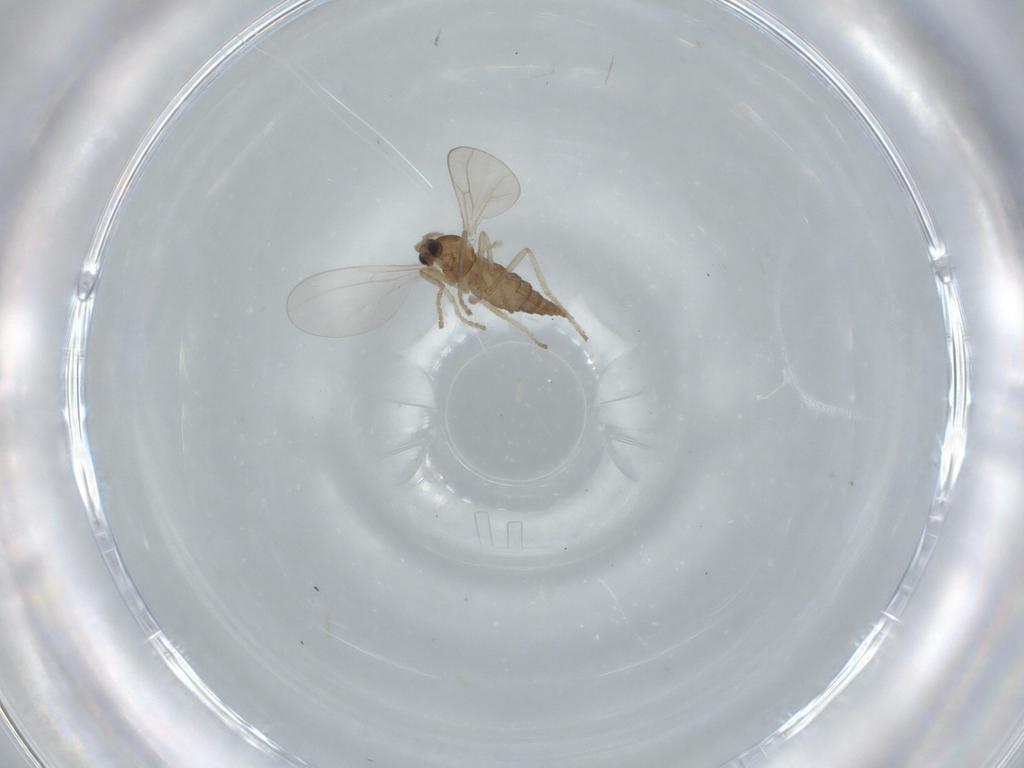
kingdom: Animalia
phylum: Arthropoda
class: Insecta
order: Diptera
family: Cecidomyiidae
